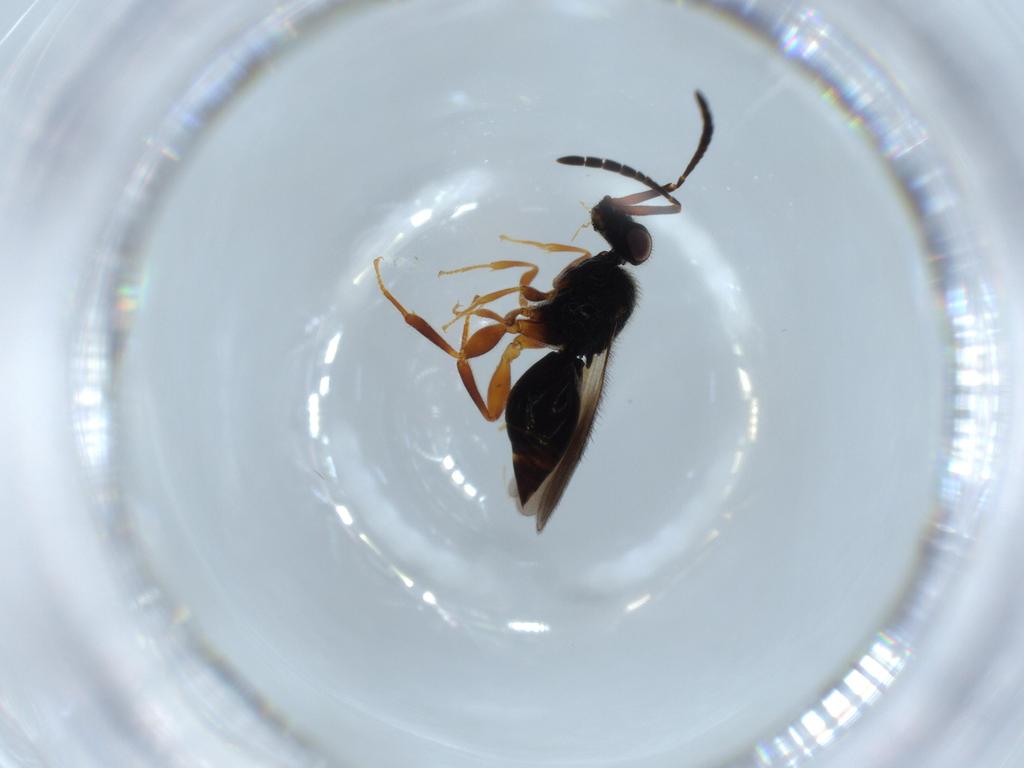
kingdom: Animalia
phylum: Arthropoda
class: Insecta
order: Hymenoptera
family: Ceraphronidae
